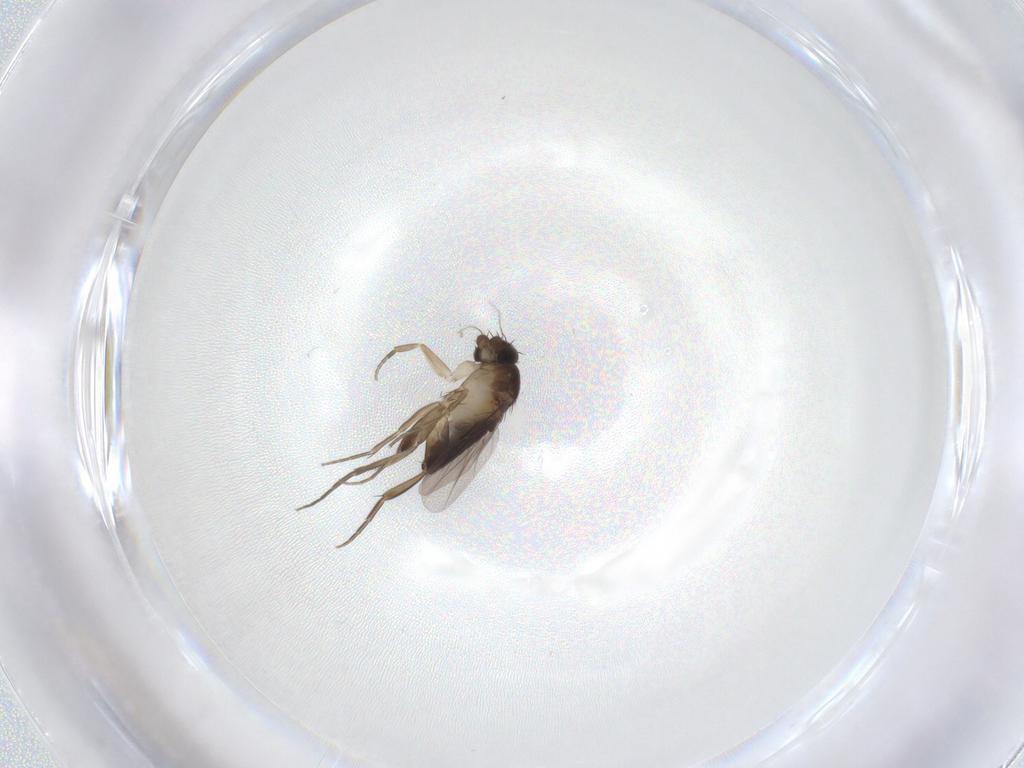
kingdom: Animalia
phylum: Arthropoda
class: Insecta
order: Diptera
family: Phoridae
